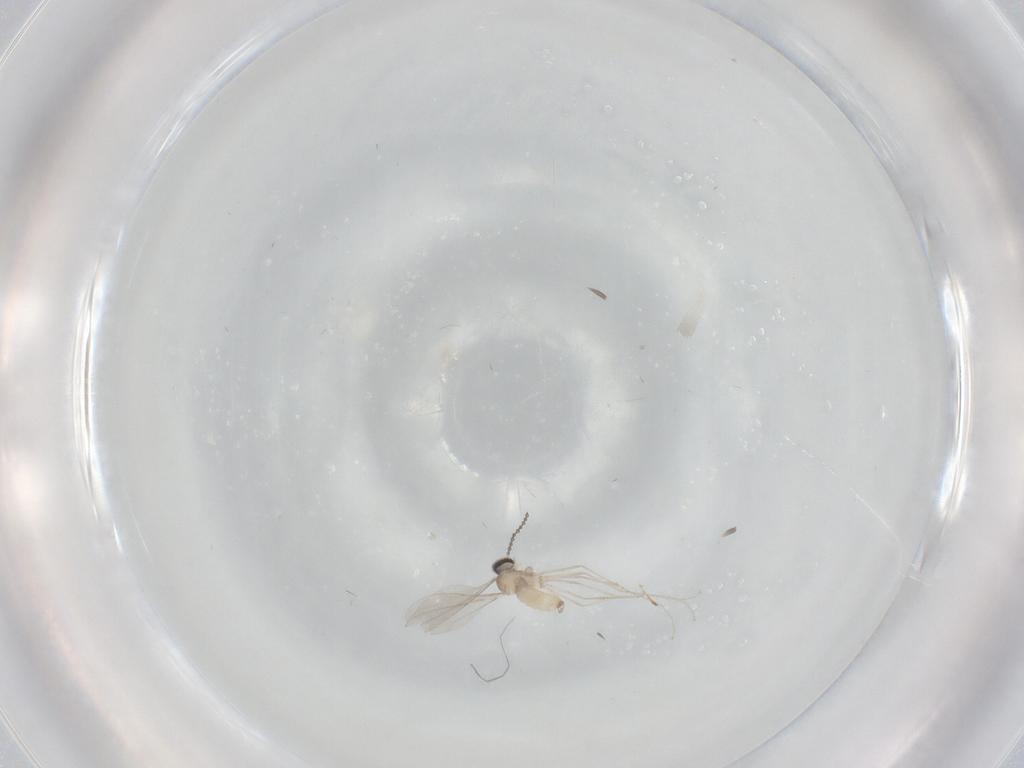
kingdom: Animalia
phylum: Arthropoda
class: Insecta
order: Diptera
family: Cecidomyiidae
